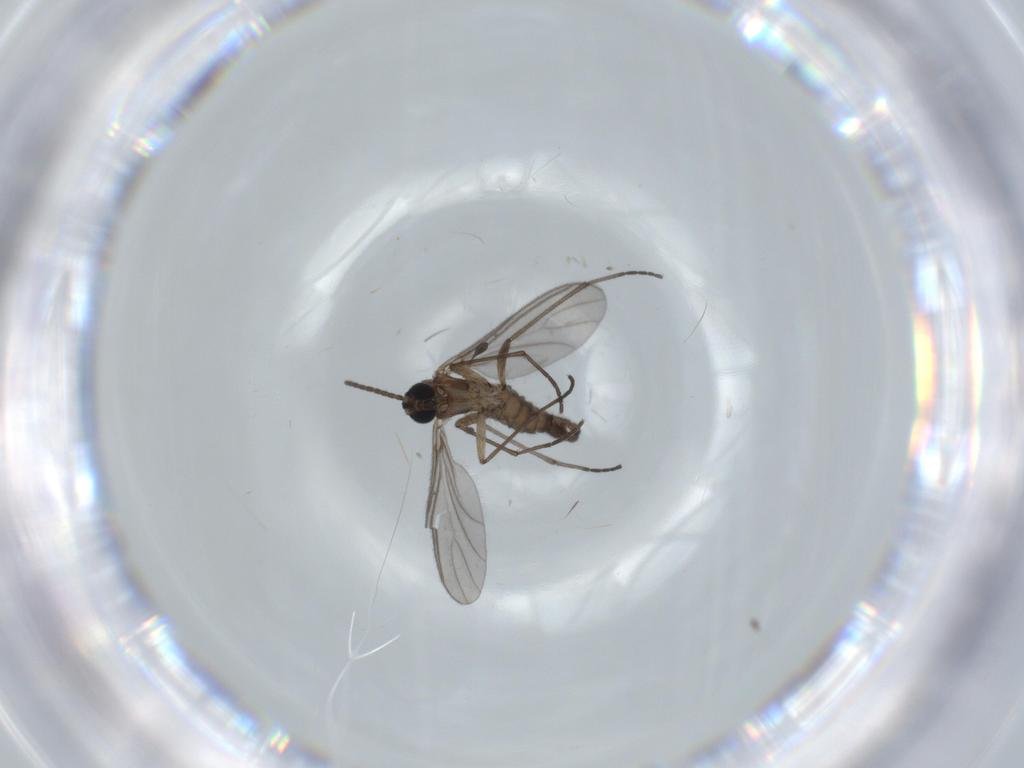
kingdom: Animalia
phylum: Arthropoda
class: Insecta
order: Diptera
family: Sciaridae
